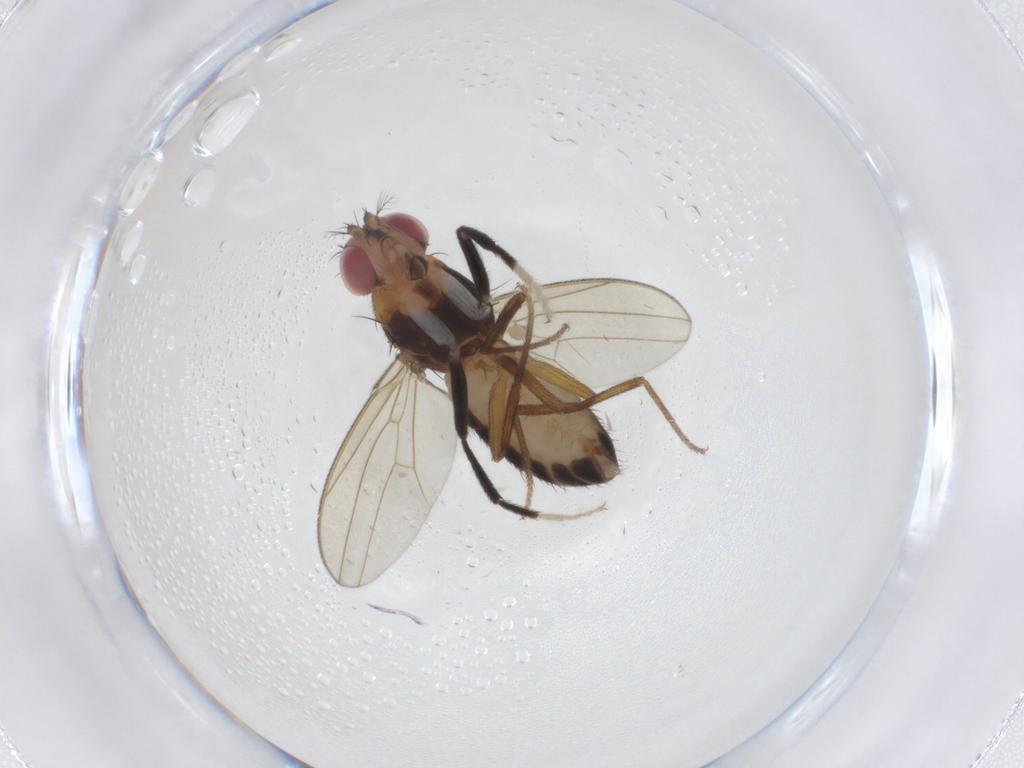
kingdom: Animalia
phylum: Arthropoda
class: Insecta
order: Diptera
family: Drosophilidae
